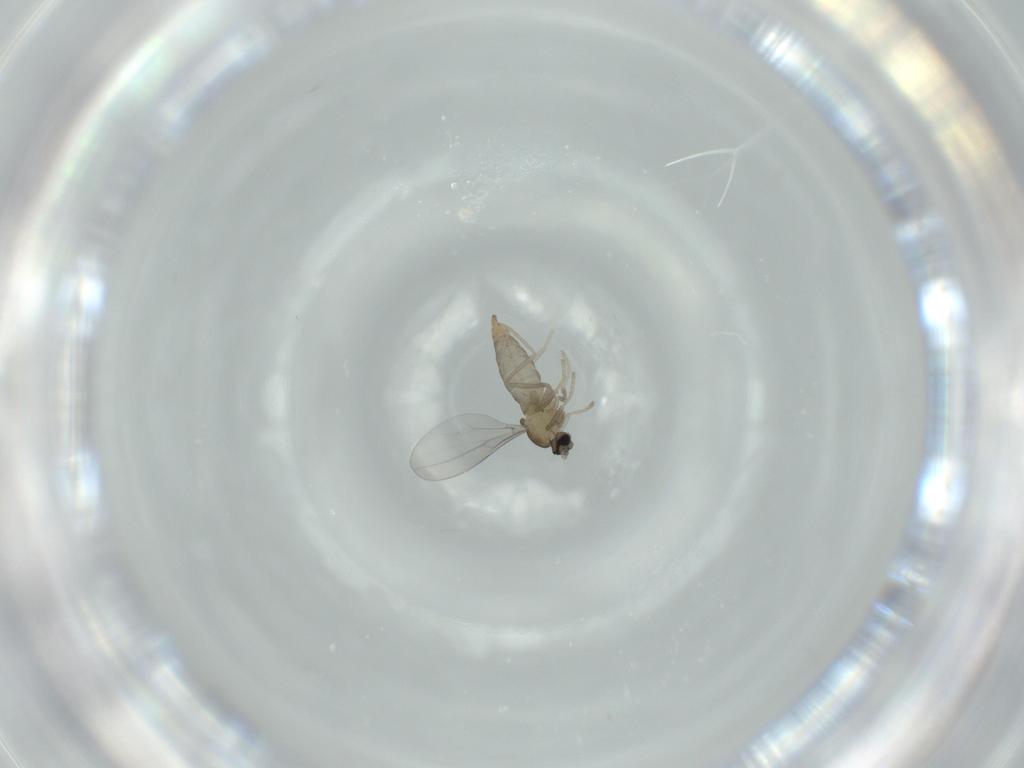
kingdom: Animalia
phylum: Arthropoda
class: Insecta
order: Diptera
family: Cecidomyiidae
